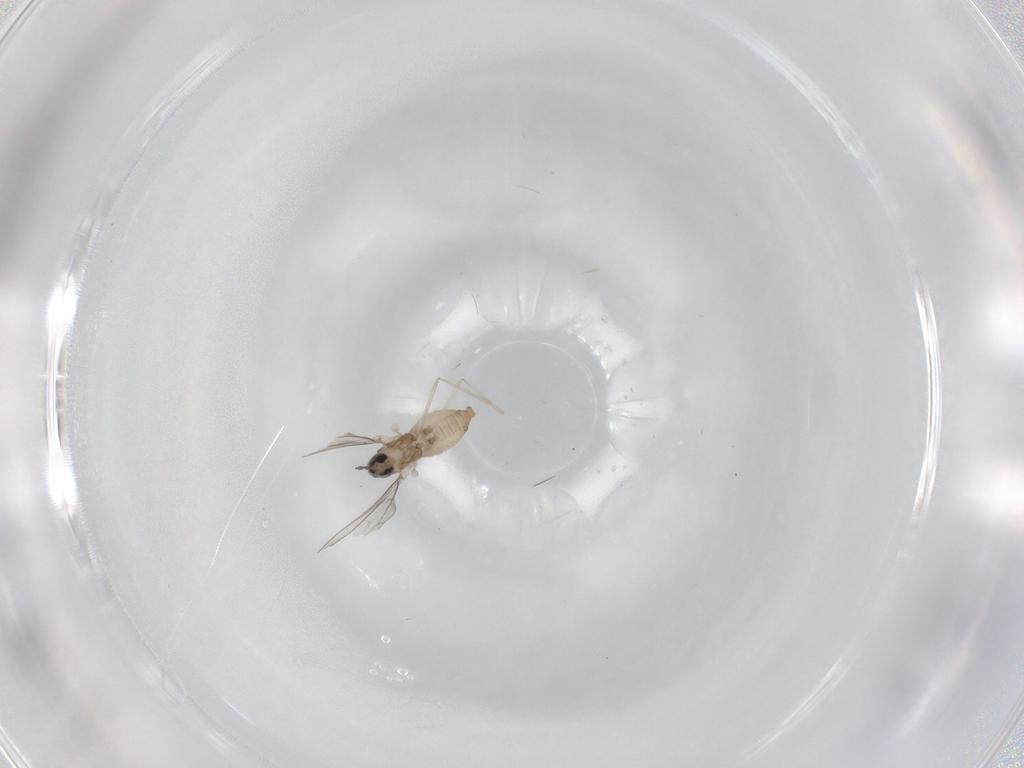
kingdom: Animalia
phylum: Arthropoda
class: Insecta
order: Diptera
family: Cecidomyiidae
